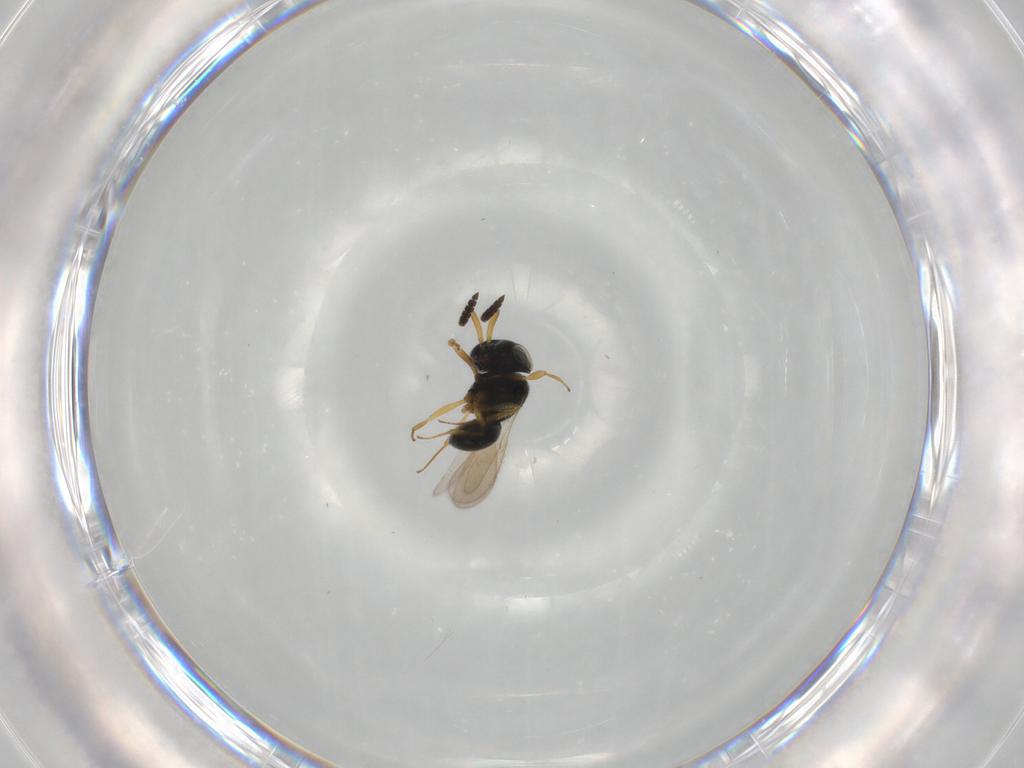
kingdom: Animalia
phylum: Arthropoda
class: Insecta
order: Hymenoptera
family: Scelionidae
